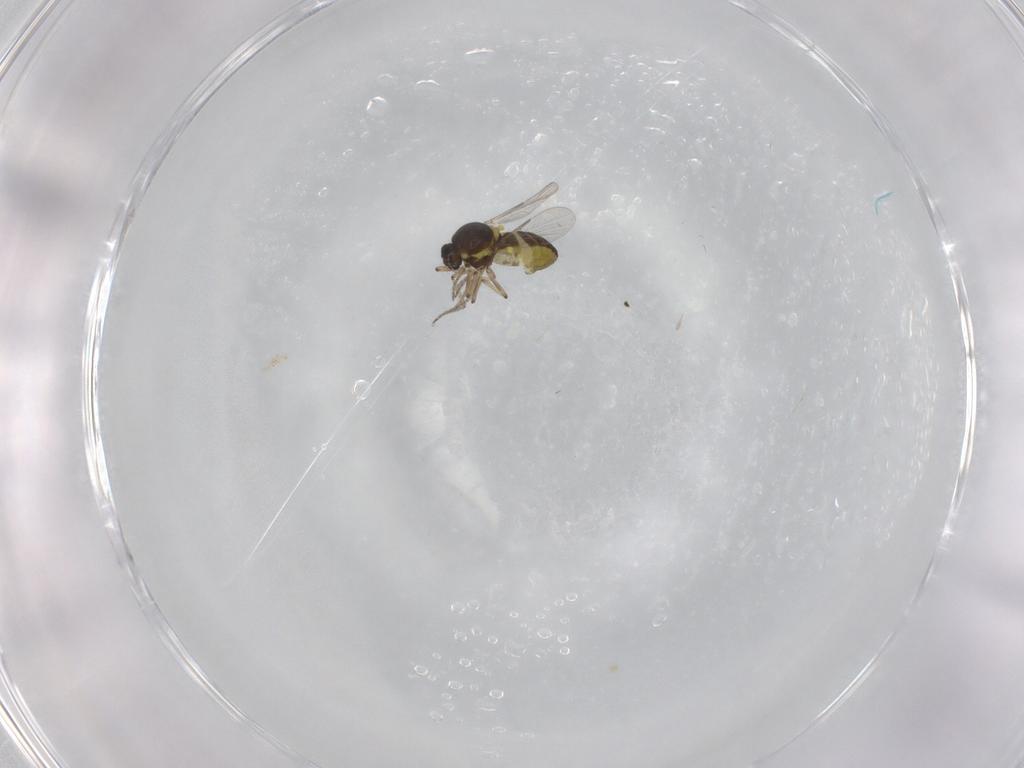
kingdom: Animalia
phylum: Arthropoda
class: Insecta
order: Diptera
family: Ceratopogonidae
